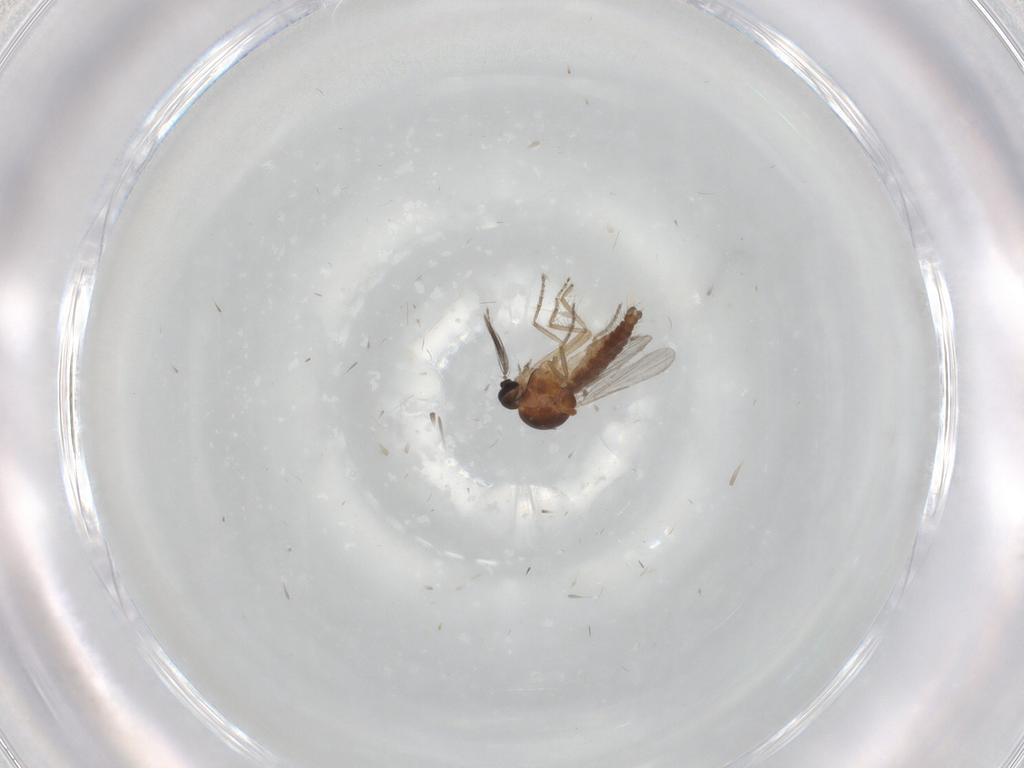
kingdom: Animalia
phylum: Arthropoda
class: Insecta
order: Diptera
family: Ceratopogonidae
